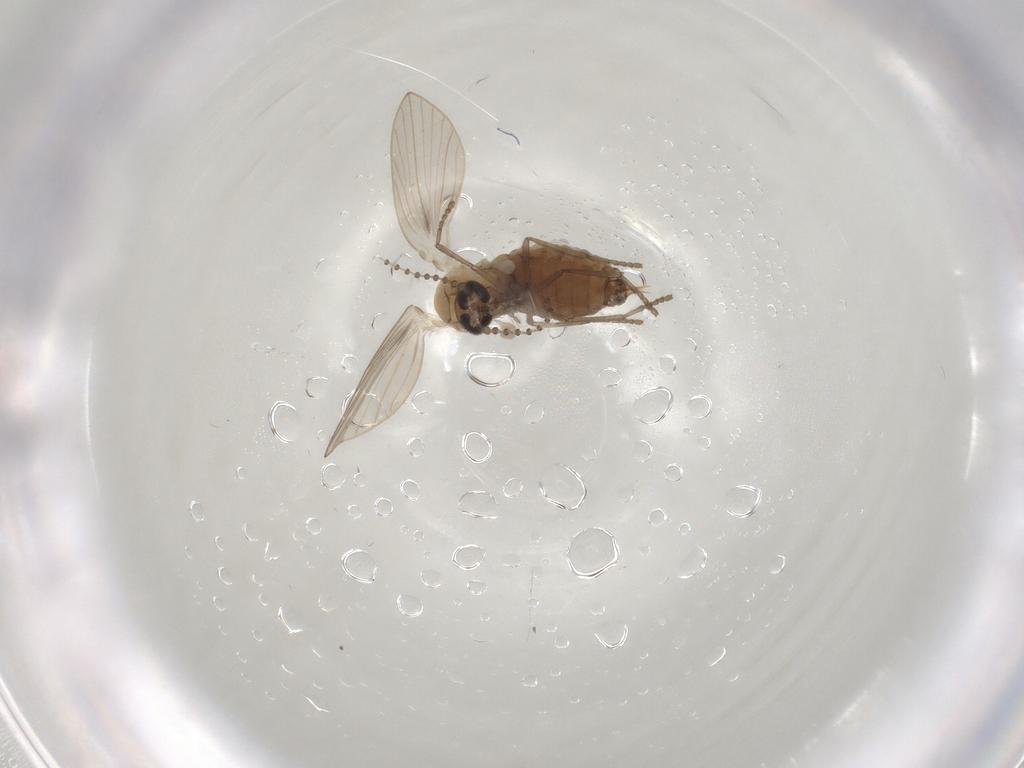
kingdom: Animalia
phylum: Arthropoda
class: Insecta
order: Diptera
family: Psychodidae
